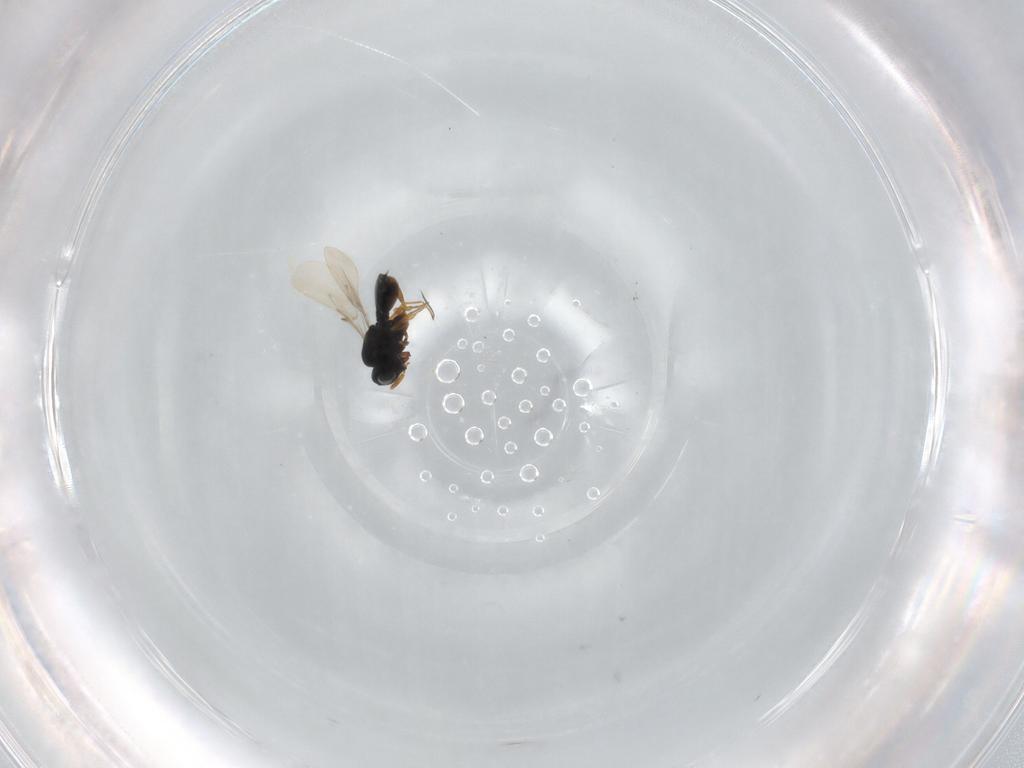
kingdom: Animalia
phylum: Arthropoda
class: Insecta
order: Hymenoptera
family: Scelionidae
